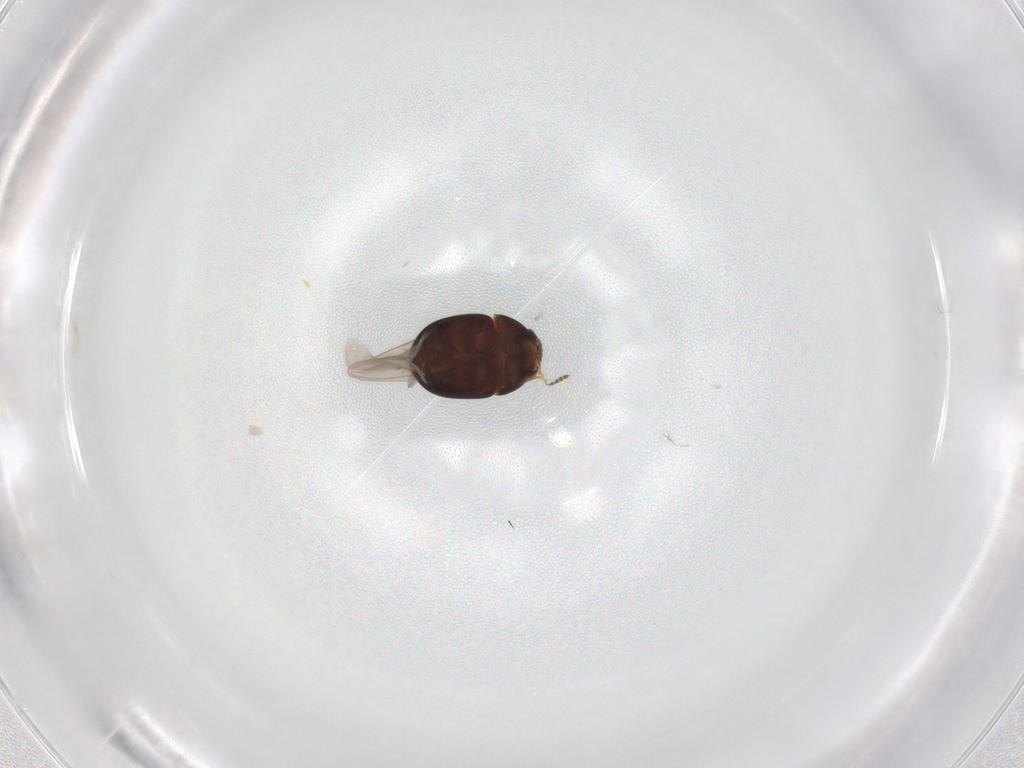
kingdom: Animalia
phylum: Arthropoda
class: Insecta
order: Coleoptera
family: Leiodidae
